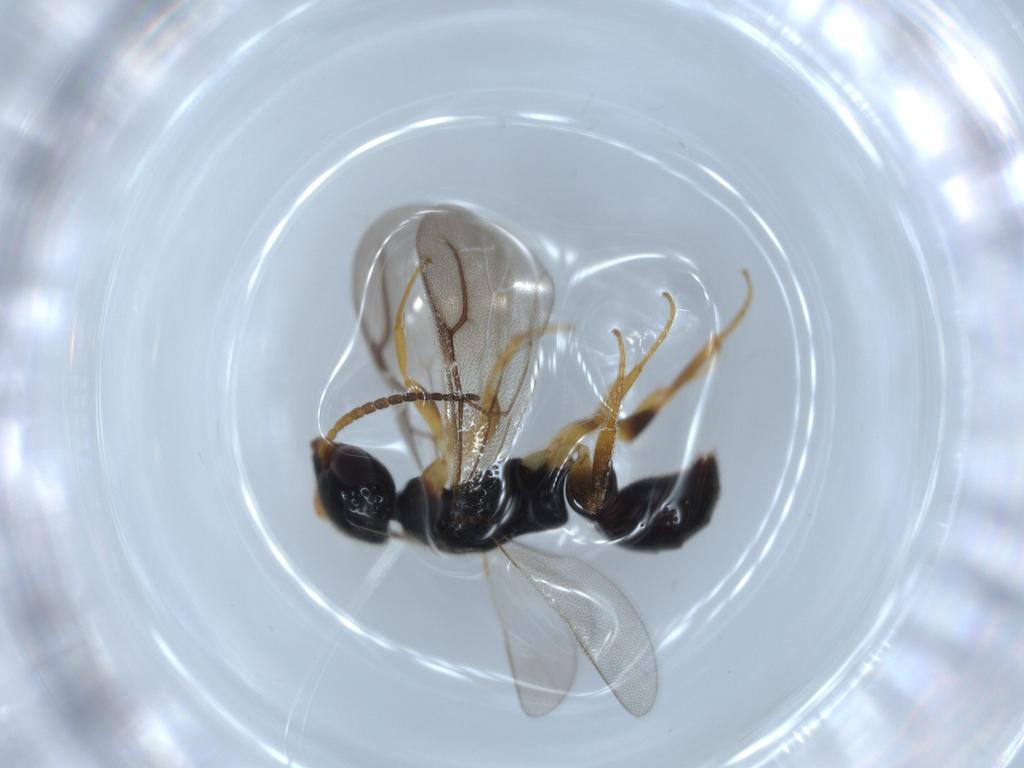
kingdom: Animalia
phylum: Arthropoda
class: Insecta
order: Hymenoptera
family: Bethylidae
